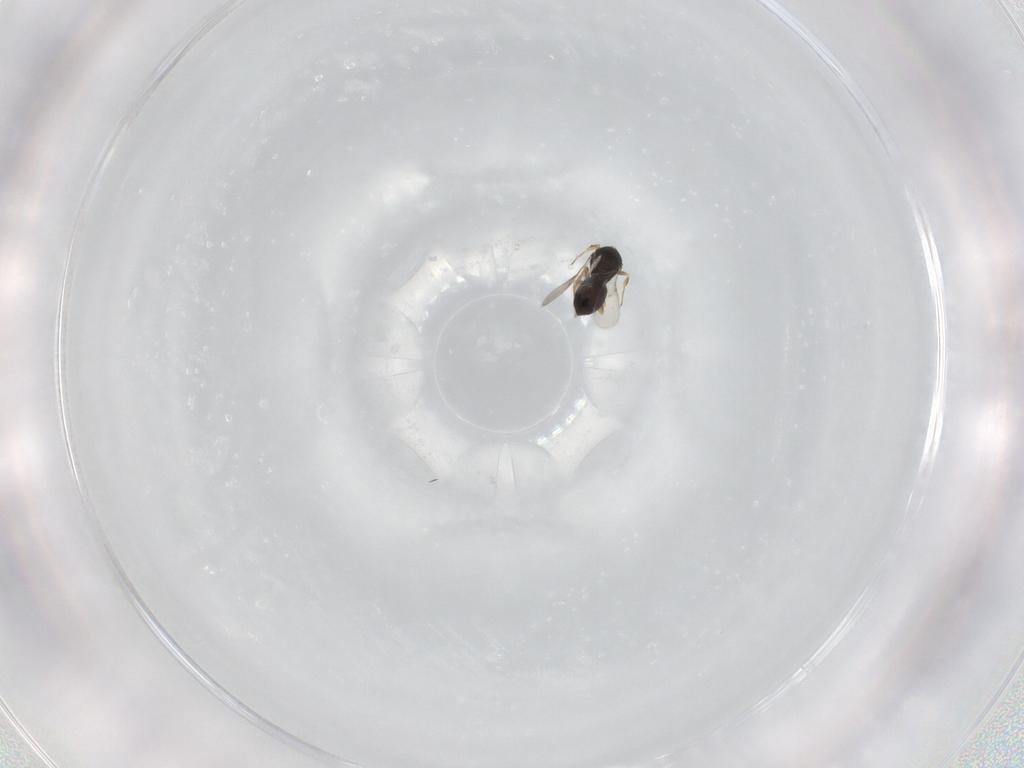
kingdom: Animalia
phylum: Arthropoda
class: Insecta
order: Hymenoptera
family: Scelionidae
